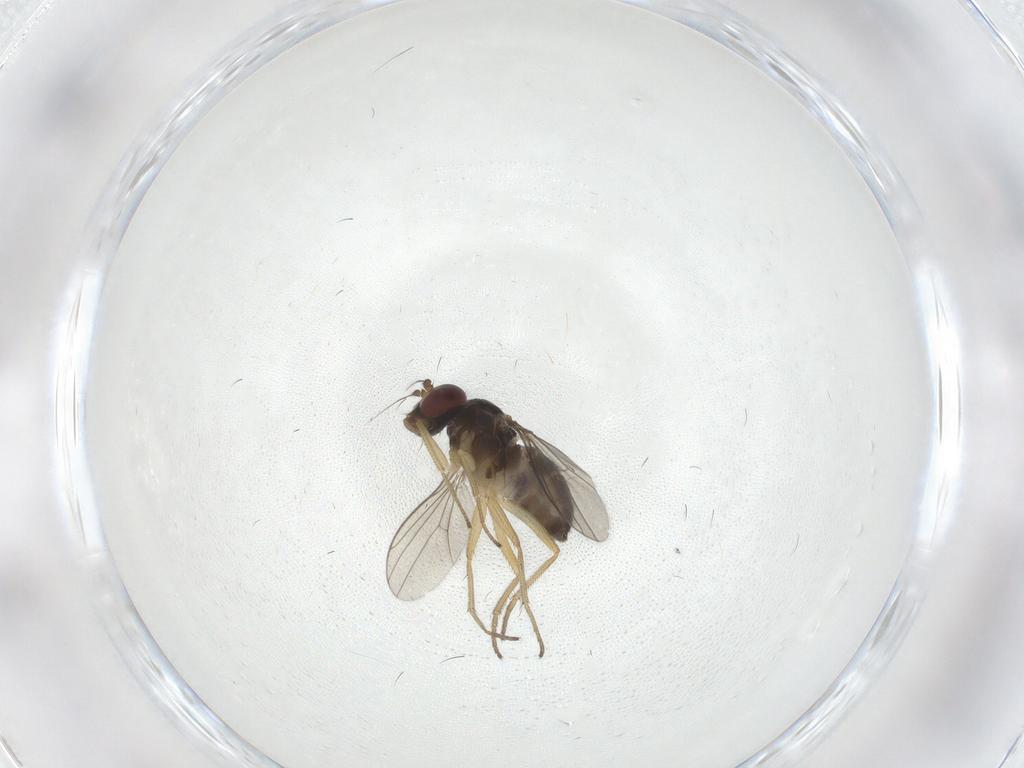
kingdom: Animalia
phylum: Arthropoda
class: Insecta
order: Diptera
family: Dolichopodidae
